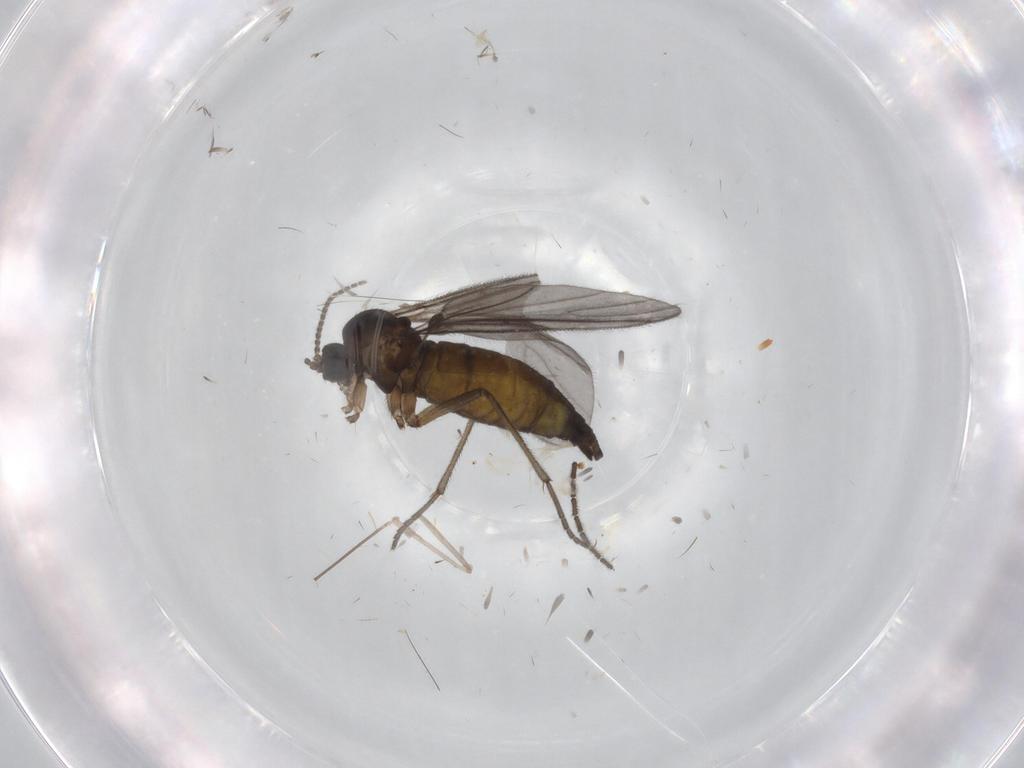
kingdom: Animalia
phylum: Arthropoda
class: Insecta
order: Diptera
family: Sciaridae
